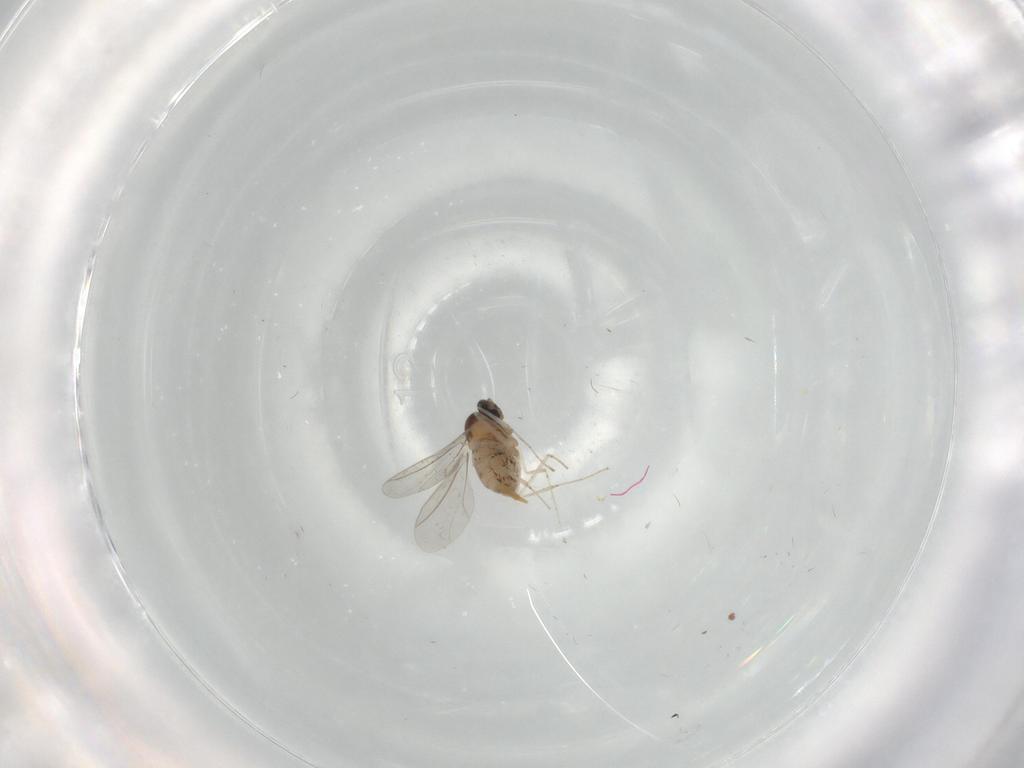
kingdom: Animalia
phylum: Arthropoda
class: Insecta
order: Diptera
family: Cecidomyiidae
